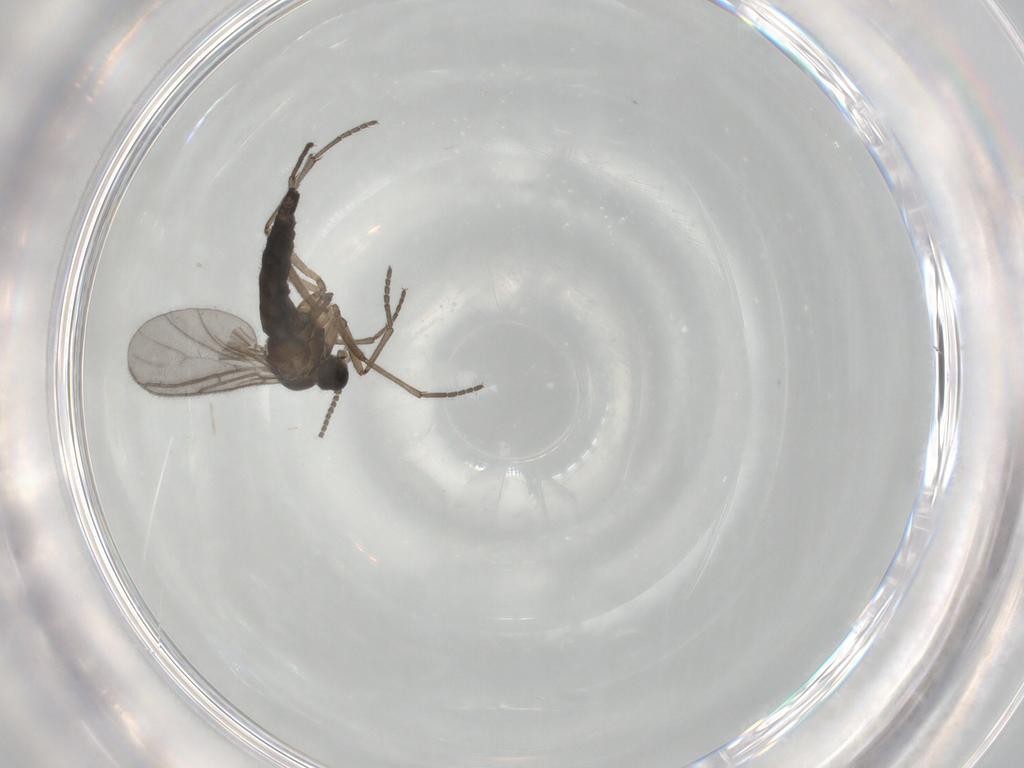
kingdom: Animalia
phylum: Arthropoda
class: Insecta
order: Diptera
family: Sciaridae
